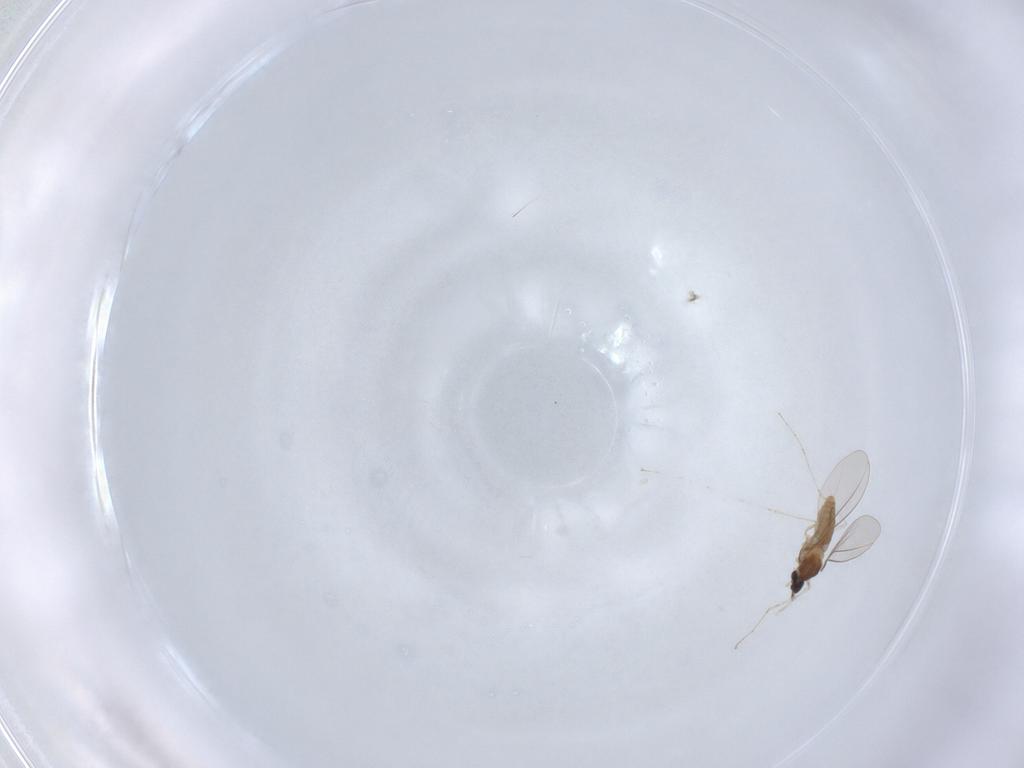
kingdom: Animalia
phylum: Arthropoda
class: Insecta
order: Diptera
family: Cecidomyiidae
